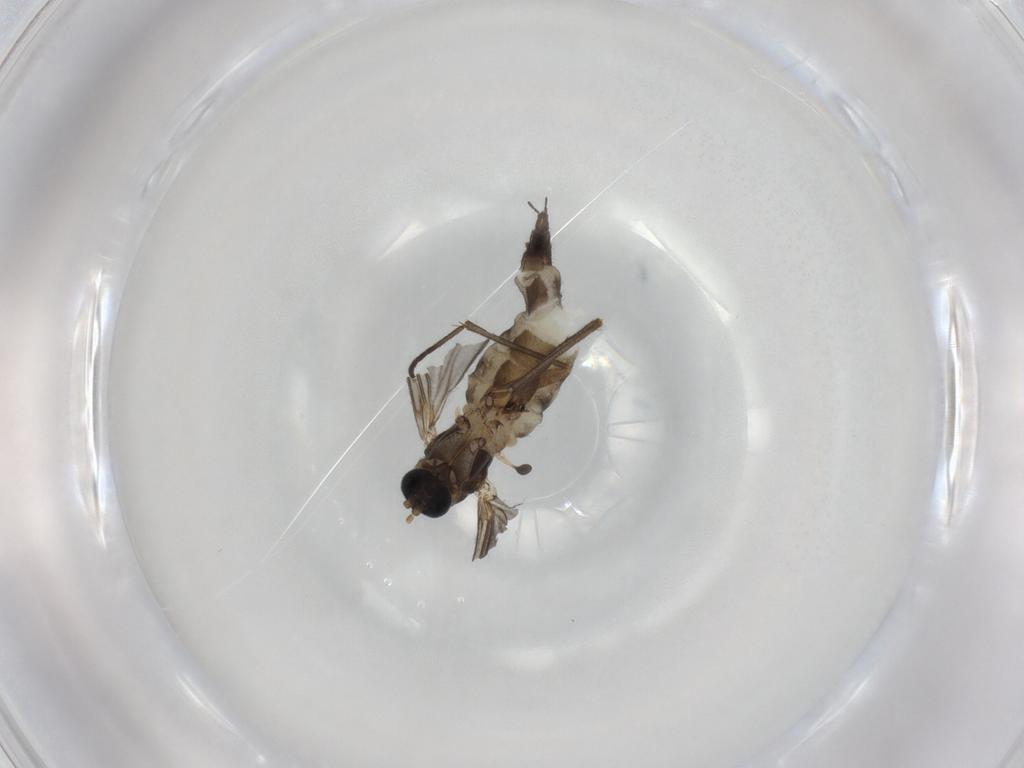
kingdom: Animalia
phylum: Arthropoda
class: Insecta
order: Diptera
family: Sciaridae
